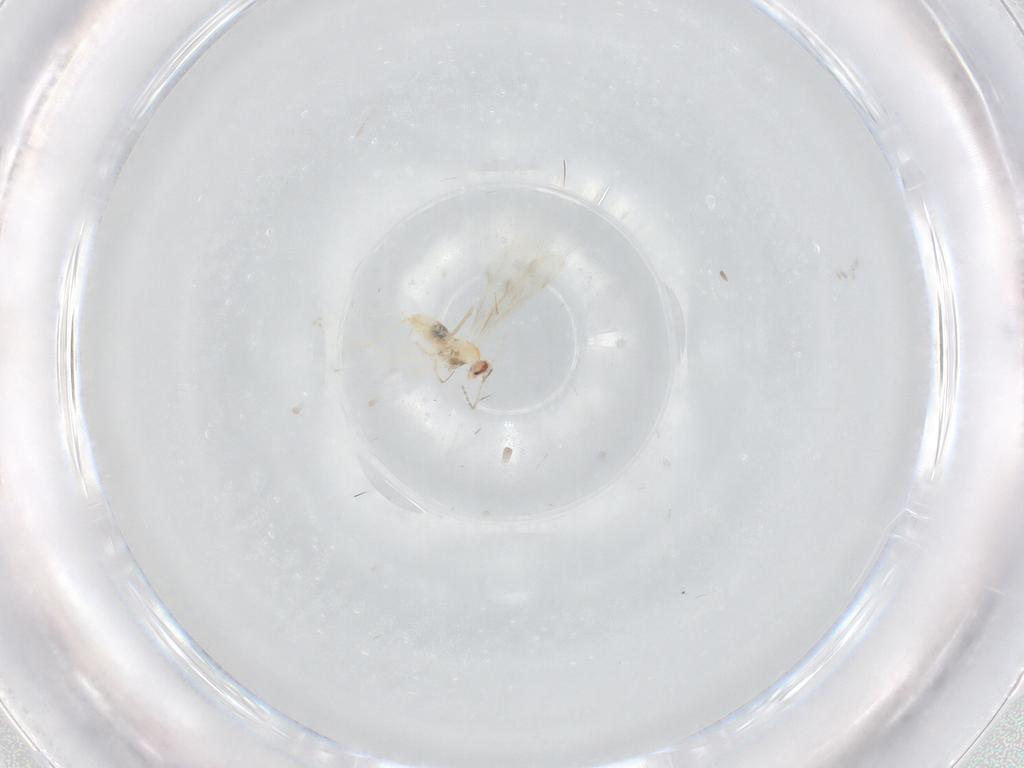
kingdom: Animalia
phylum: Arthropoda
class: Insecta
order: Diptera
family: Cecidomyiidae
